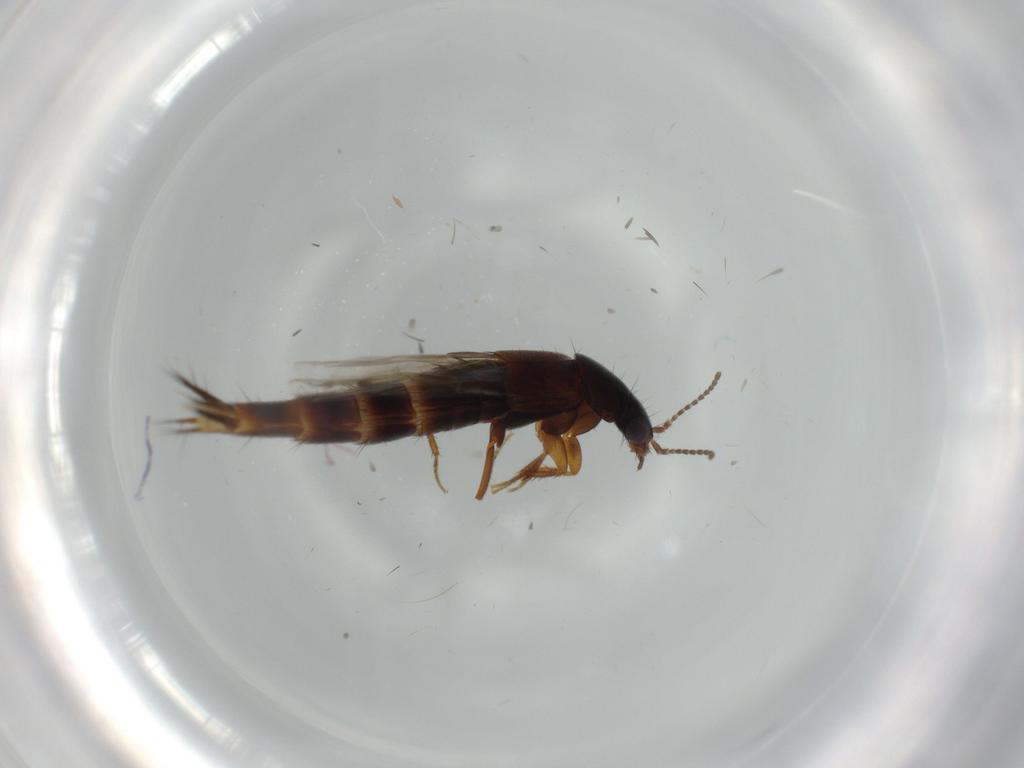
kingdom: Animalia
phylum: Arthropoda
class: Insecta
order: Coleoptera
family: Staphylinidae
